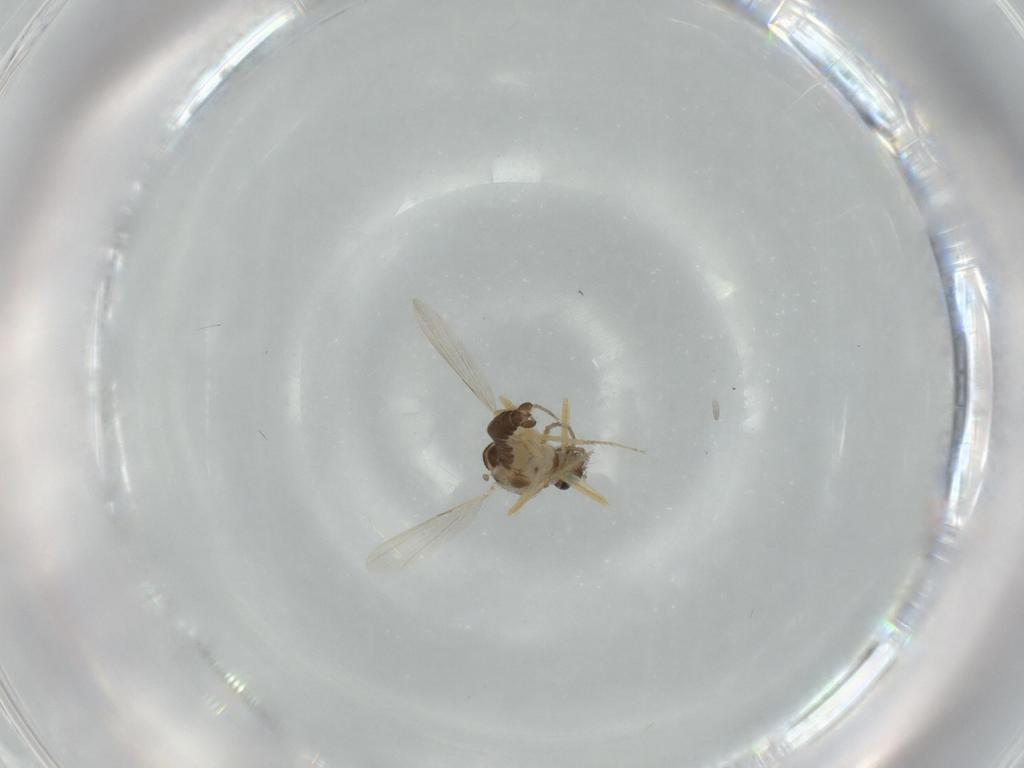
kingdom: Animalia
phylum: Arthropoda
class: Insecta
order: Diptera
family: Ceratopogonidae
